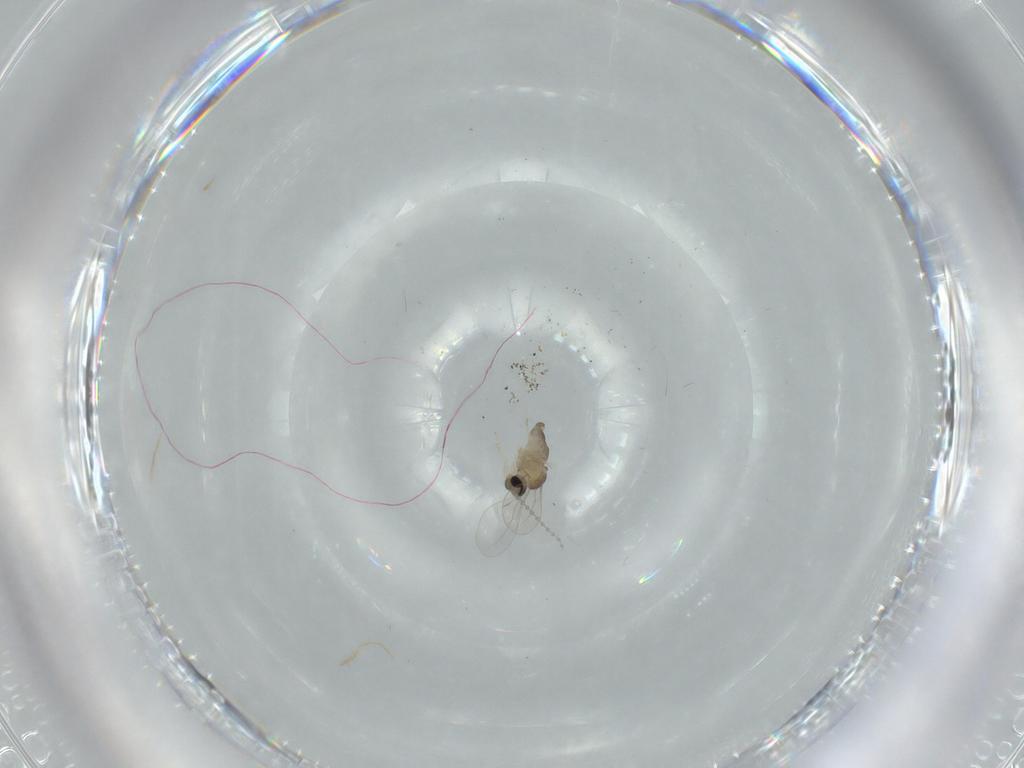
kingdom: Animalia
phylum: Arthropoda
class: Insecta
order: Diptera
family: Cecidomyiidae
